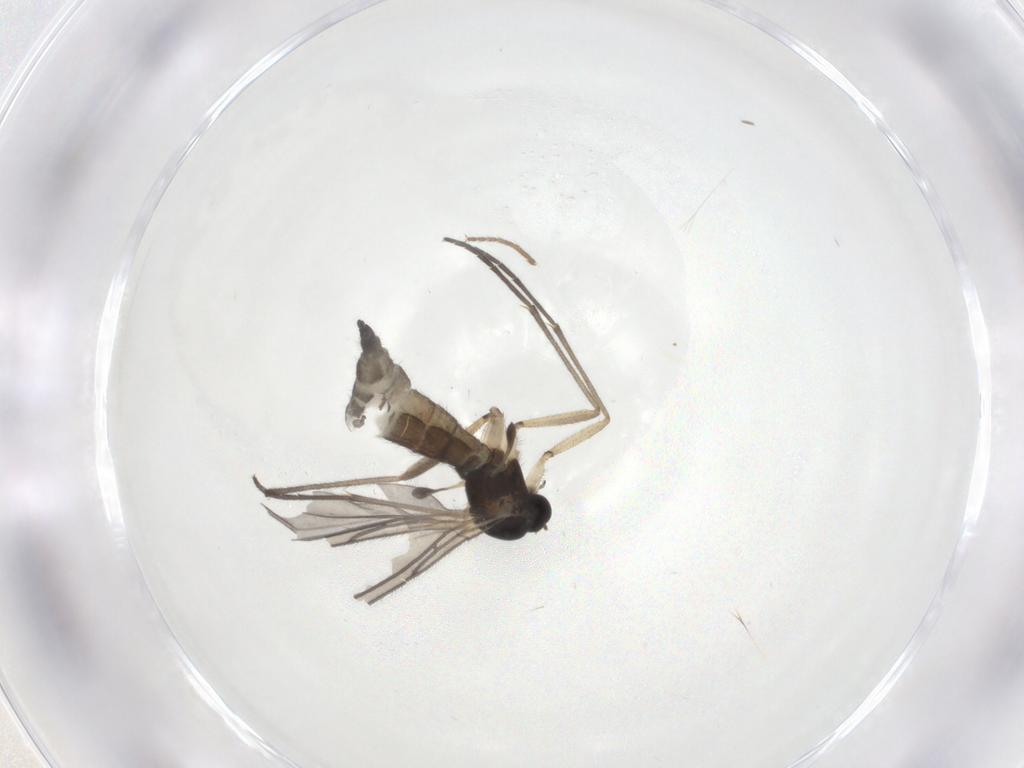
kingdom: Animalia
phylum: Arthropoda
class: Insecta
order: Diptera
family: Sciaridae
